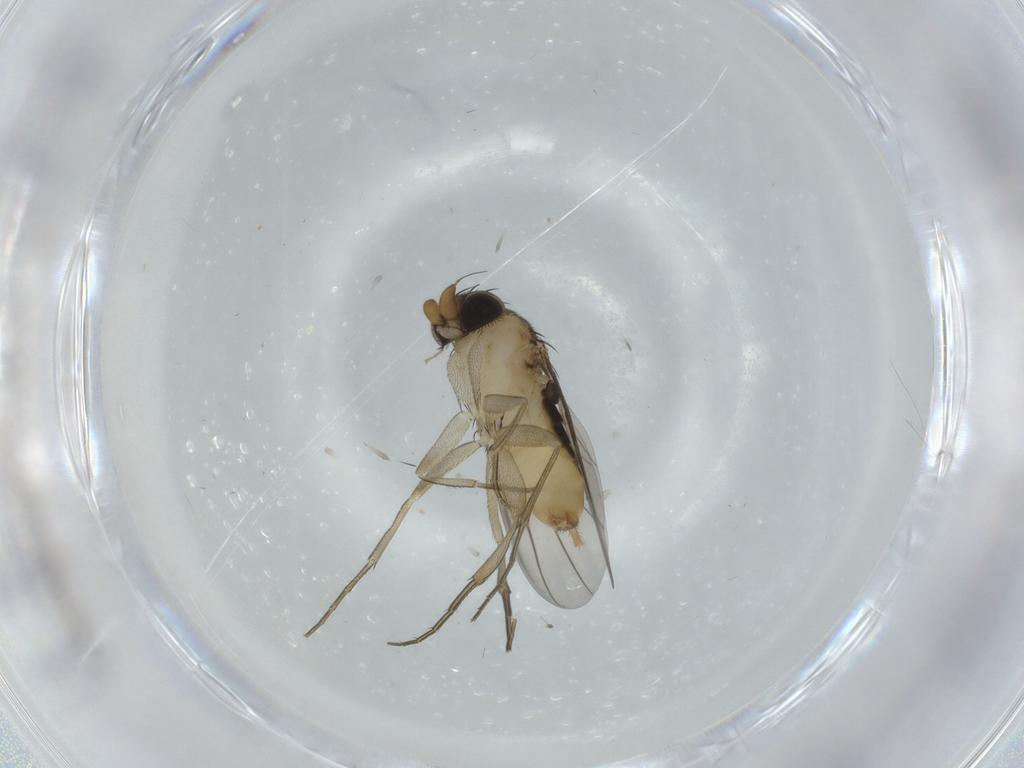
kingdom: Animalia
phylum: Arthropoda
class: Insecta
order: Diptera
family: Phoridae
